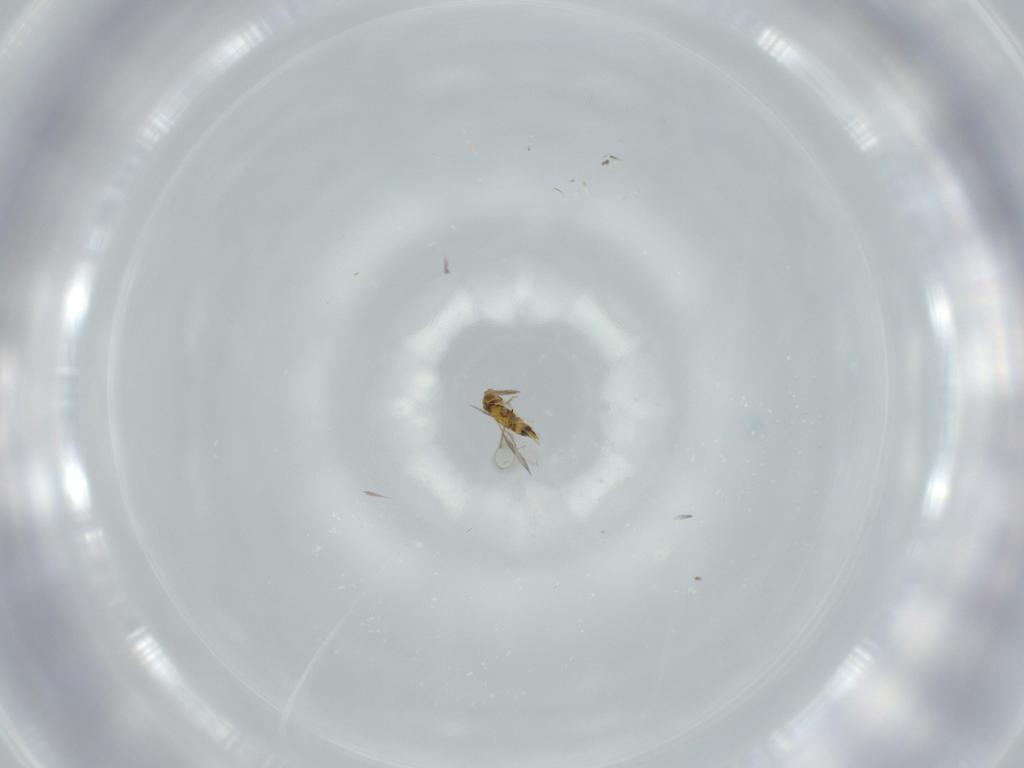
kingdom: Animalia
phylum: Arthropoda
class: Insecta
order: Hymenoptera
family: Aphelinidae
